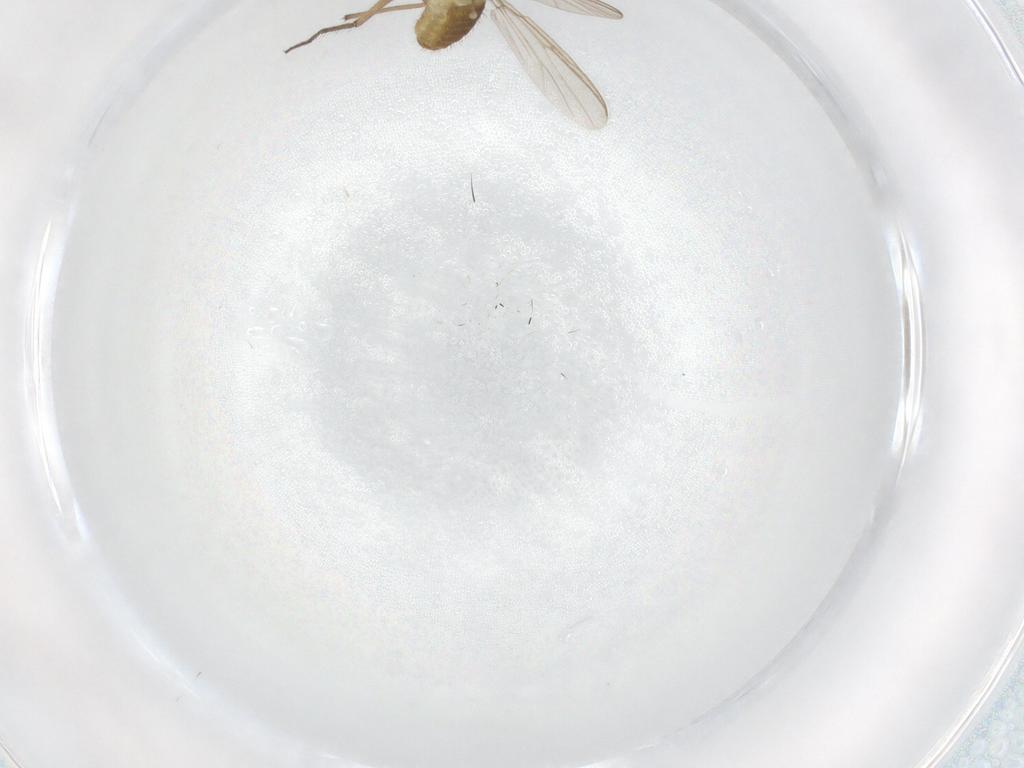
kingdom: Animalia
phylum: Arthropoda
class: Insecta
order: Diptera
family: Chironomidae
